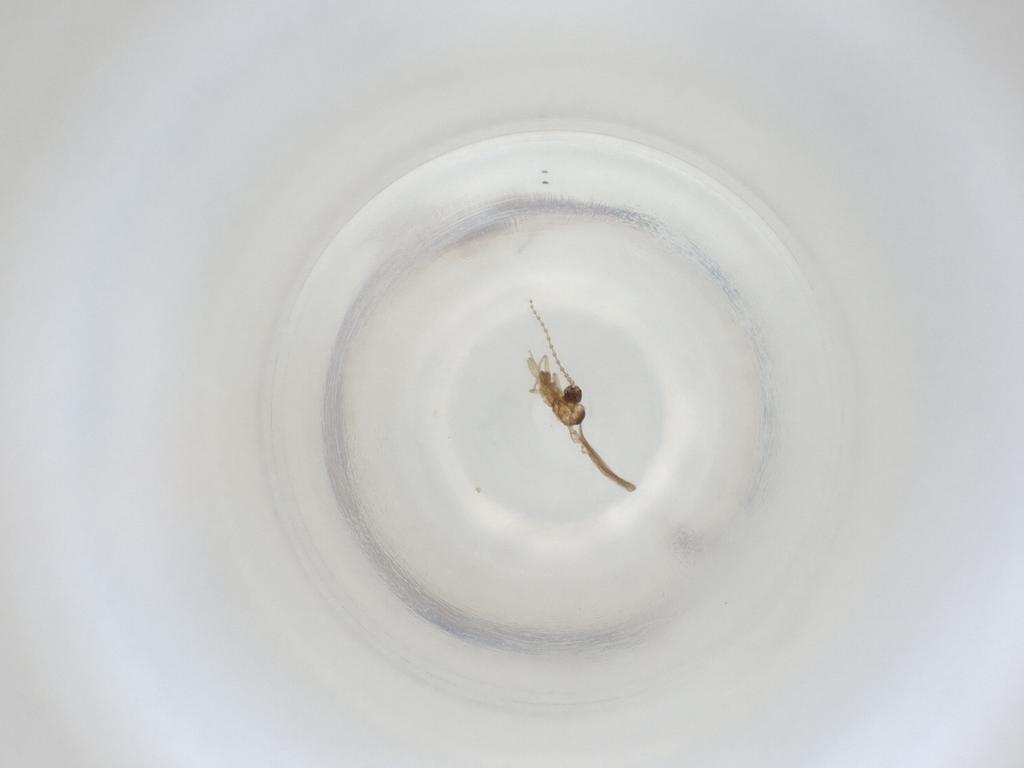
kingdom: Animalia
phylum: Arthropoda
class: Insecta
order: Diptera
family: Cecidomyiidae
